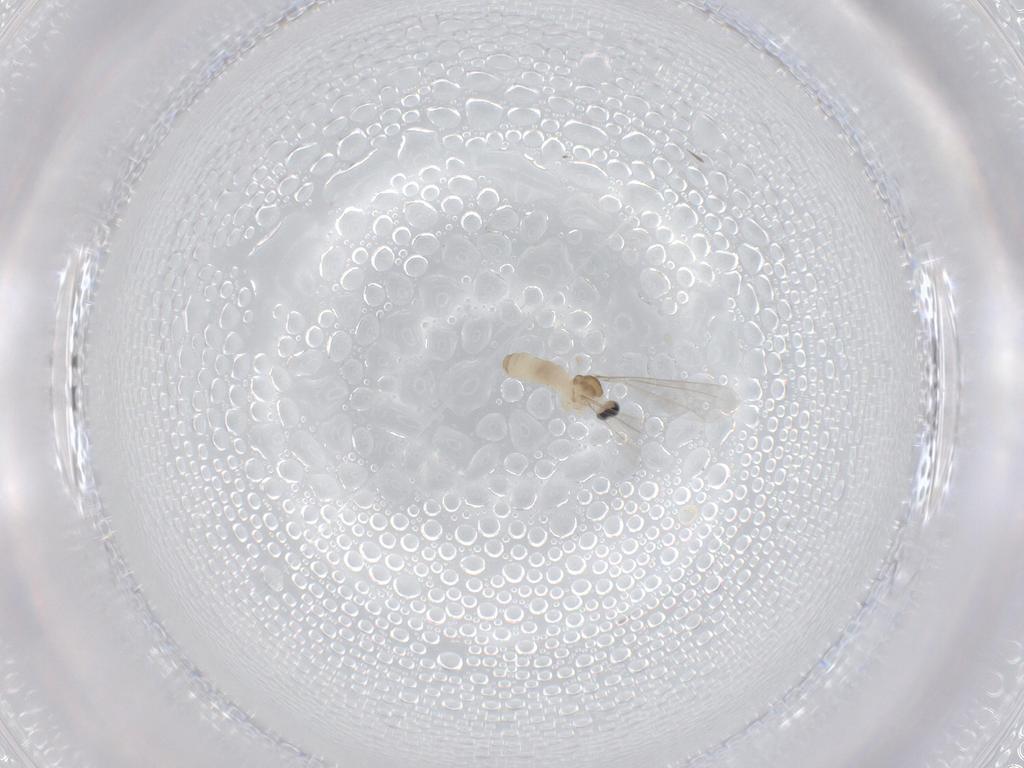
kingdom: Animalia
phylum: Arthropoda
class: Insecta
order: Diptera
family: Cecidomyiidae
